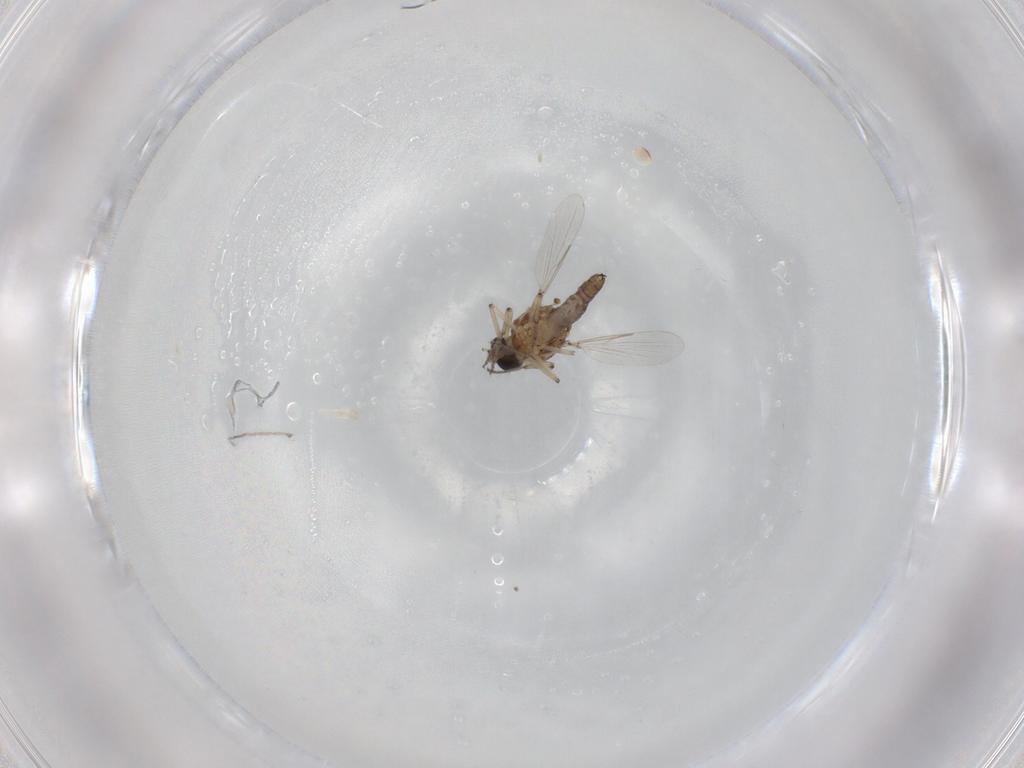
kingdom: Animalia
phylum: Arthropoda
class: Insecta
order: Diptera
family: Ceratopogonidae
